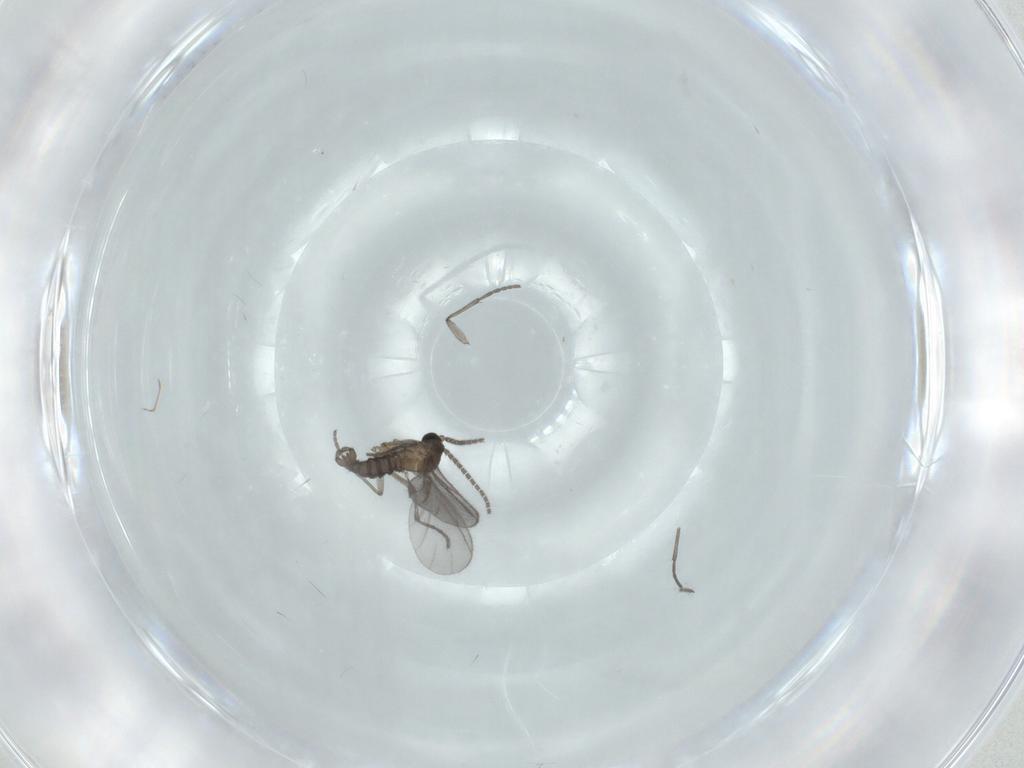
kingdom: Animalia
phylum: Arthropoda
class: Insecta
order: Diptera
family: Sciaridae
